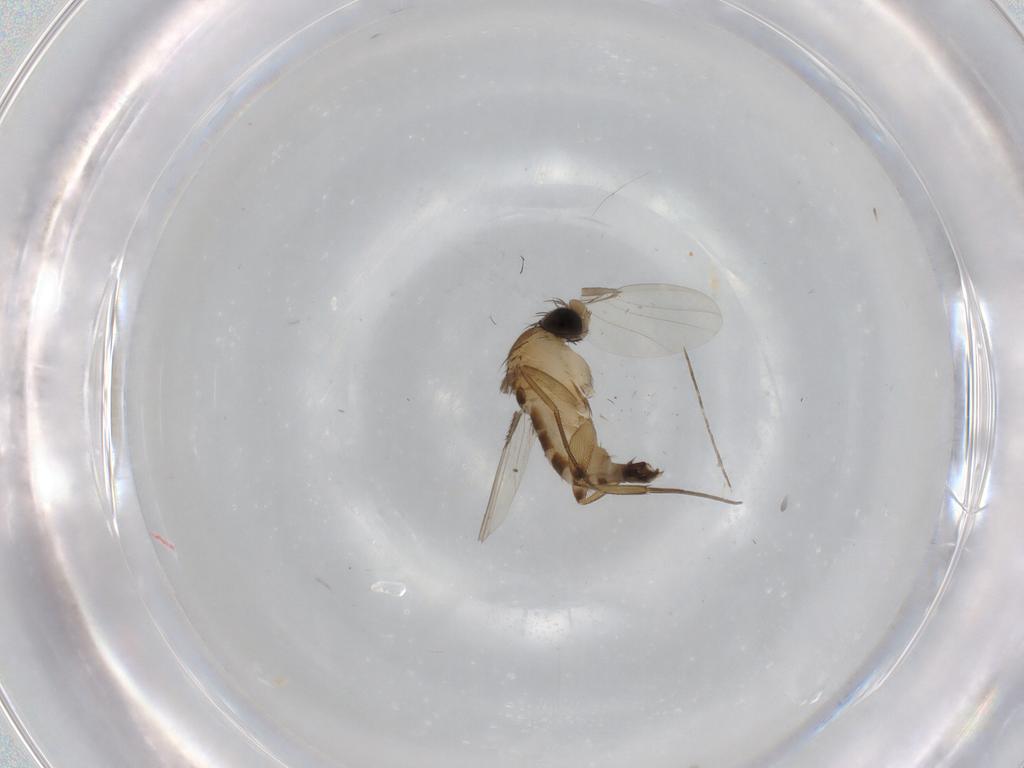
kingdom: Animalia
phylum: Arthropoda
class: Insecta
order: Diptera
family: Phoridae
